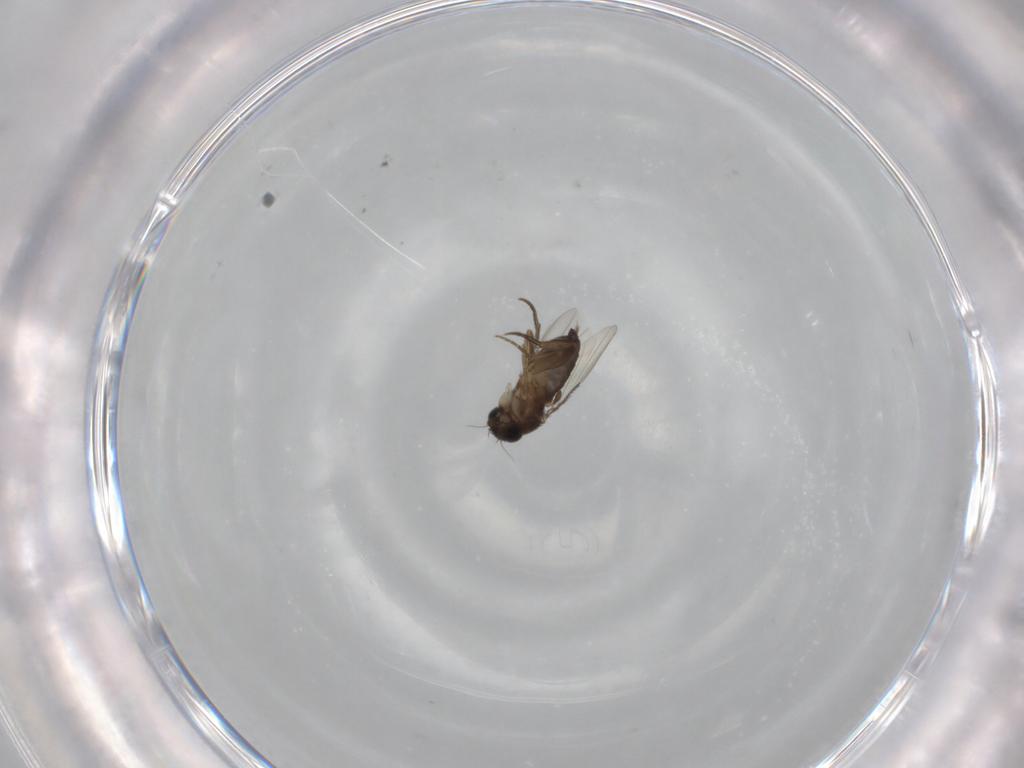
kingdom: Animalia
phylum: Arthropoda
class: Insecta
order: Diptera
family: Phoridae
